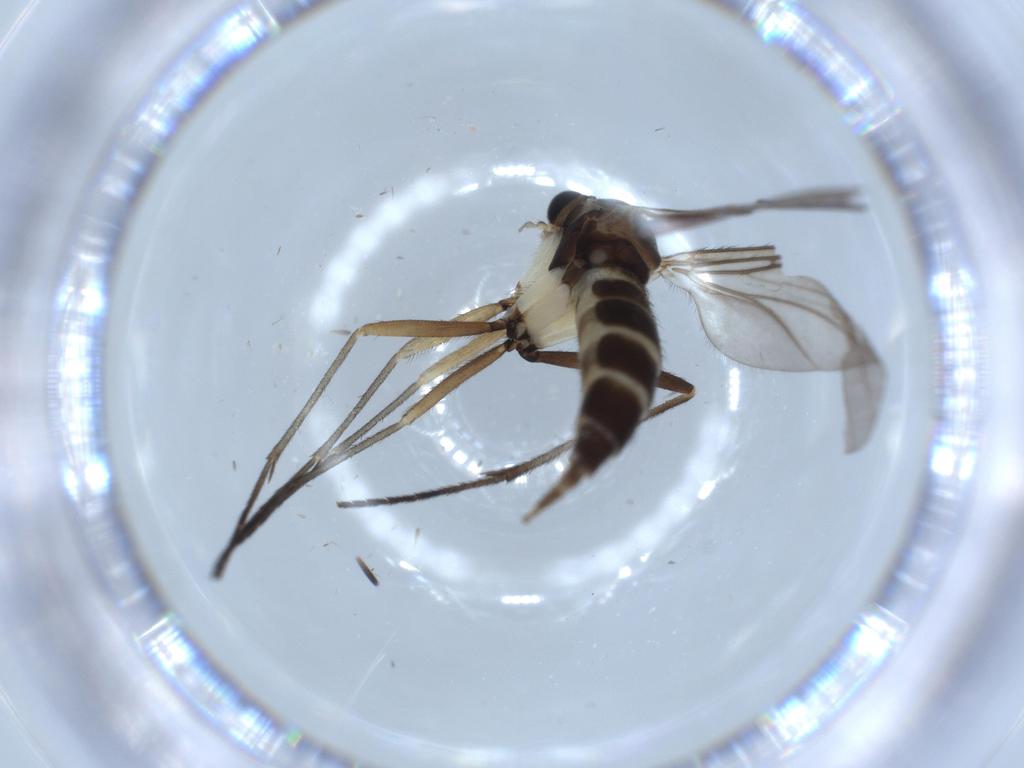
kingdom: Animalia
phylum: Arthropoda
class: Insecta
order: Diptera
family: Sciaridae
